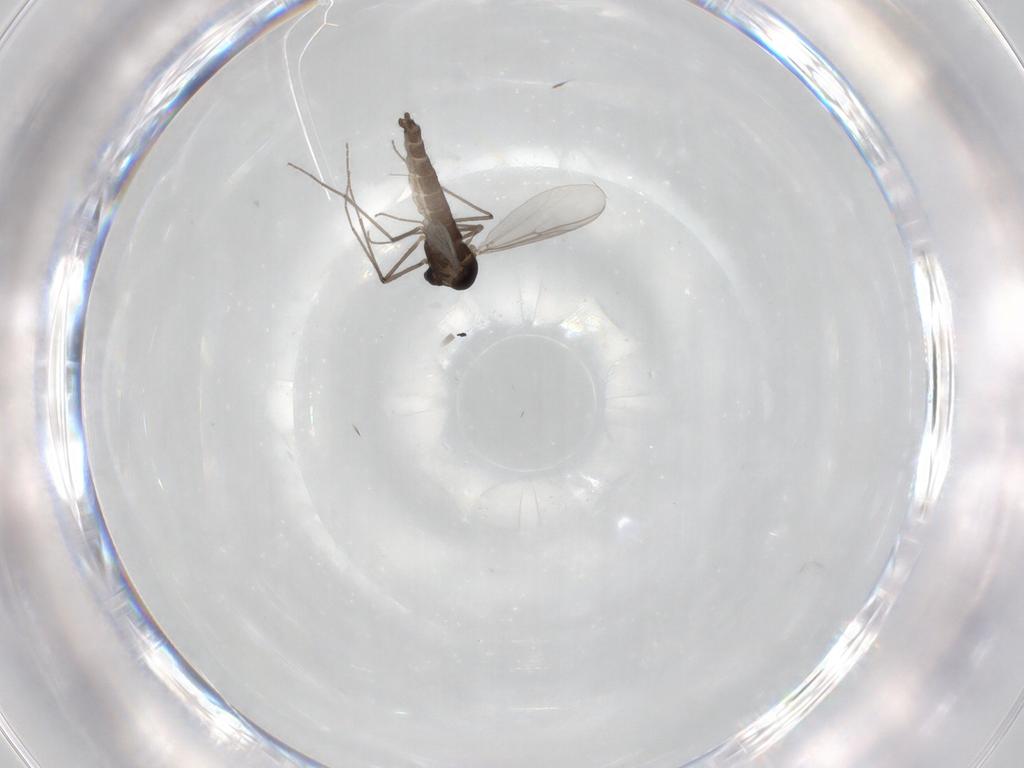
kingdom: Animalia
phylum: Arthropoda
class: Insecta
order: Diptera
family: Chironomidae
